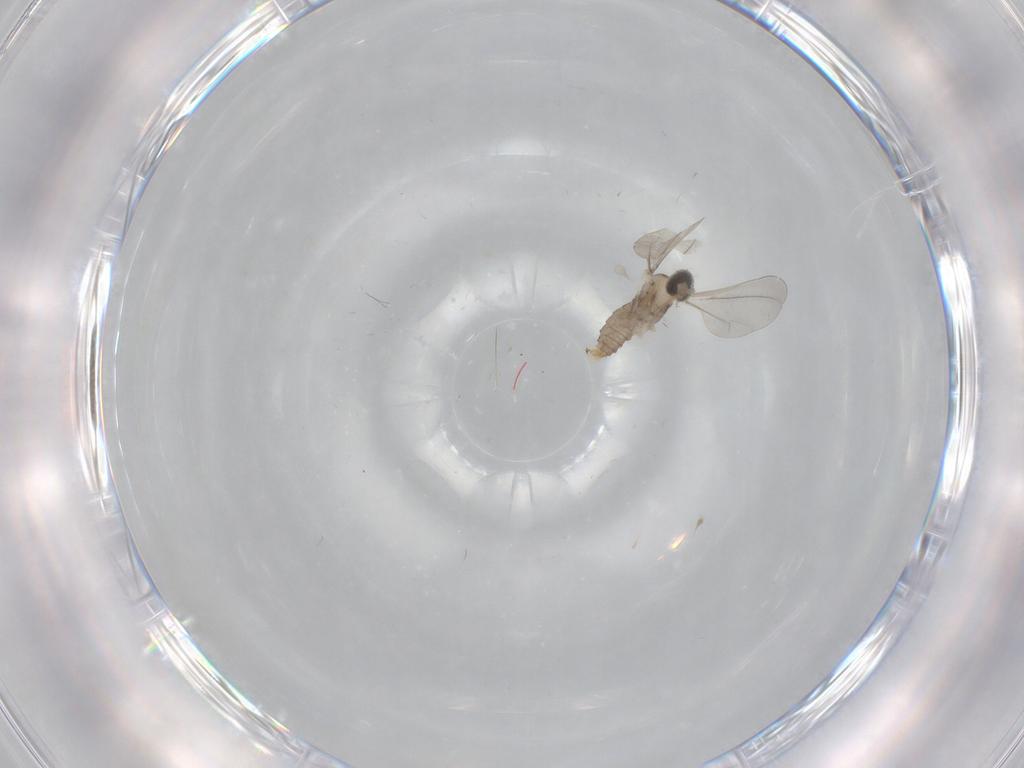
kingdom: Animalia
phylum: Arthropoda
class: Insecta
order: Diptera
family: Cecidomyiidae
